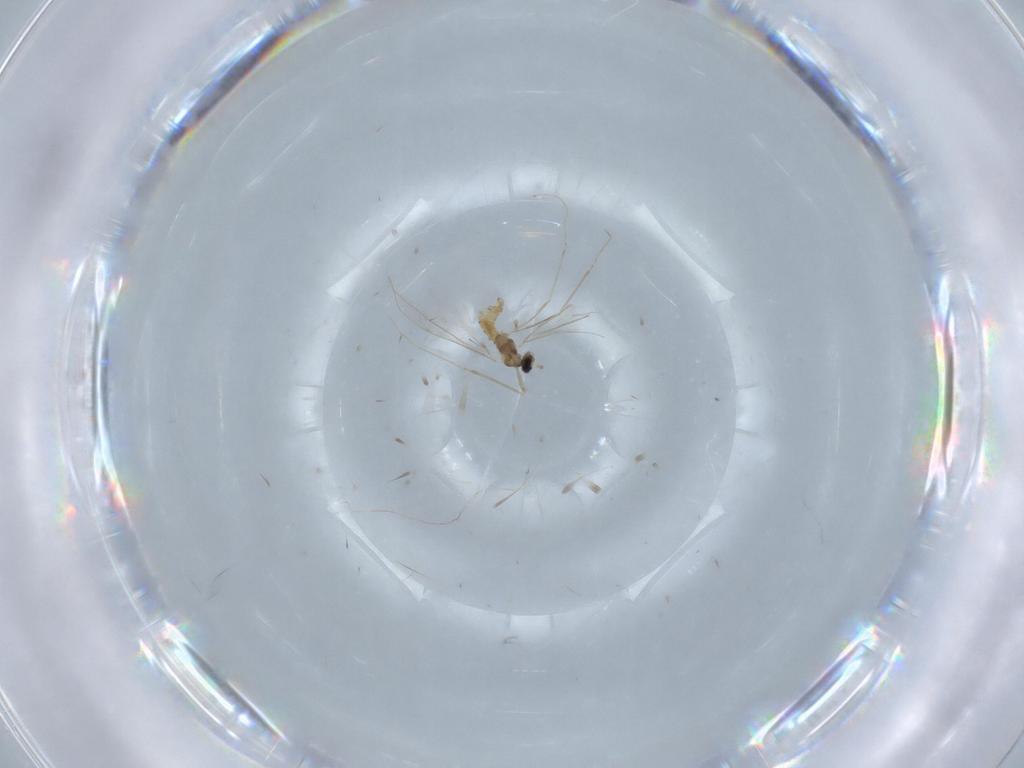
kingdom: Animalia
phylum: Arthropoda
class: Insecta
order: Diptera
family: Cecidomyiidae
